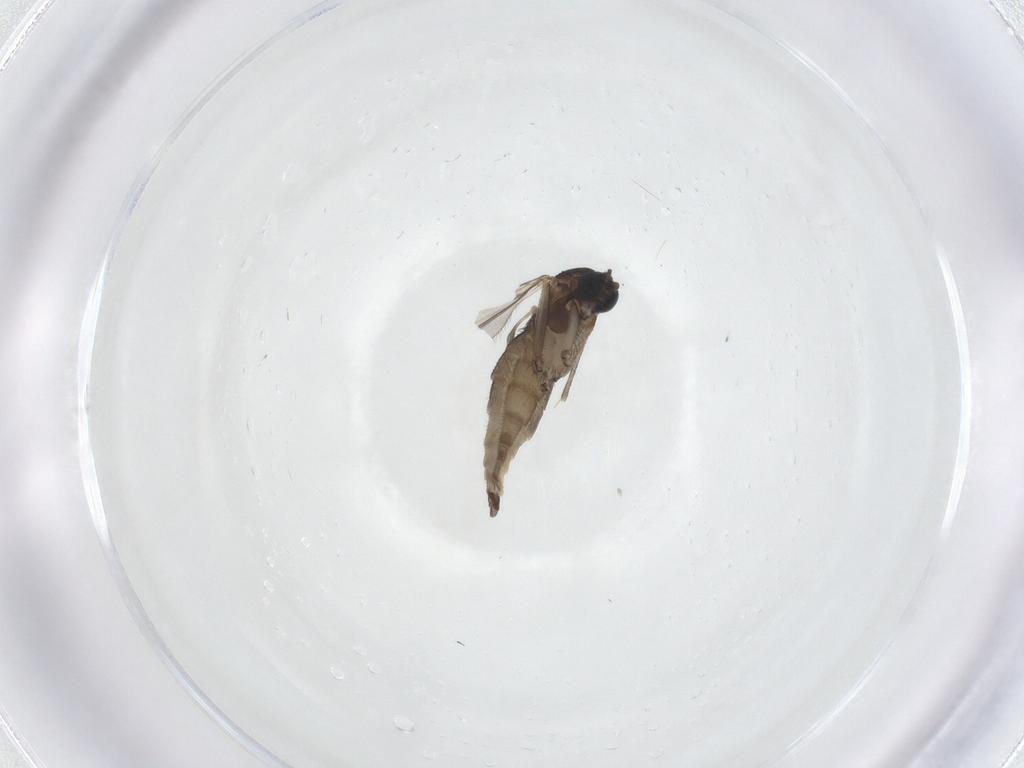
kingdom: Animalia
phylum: Arthropoda
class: Insecta
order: Diptera
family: Sciaridae
